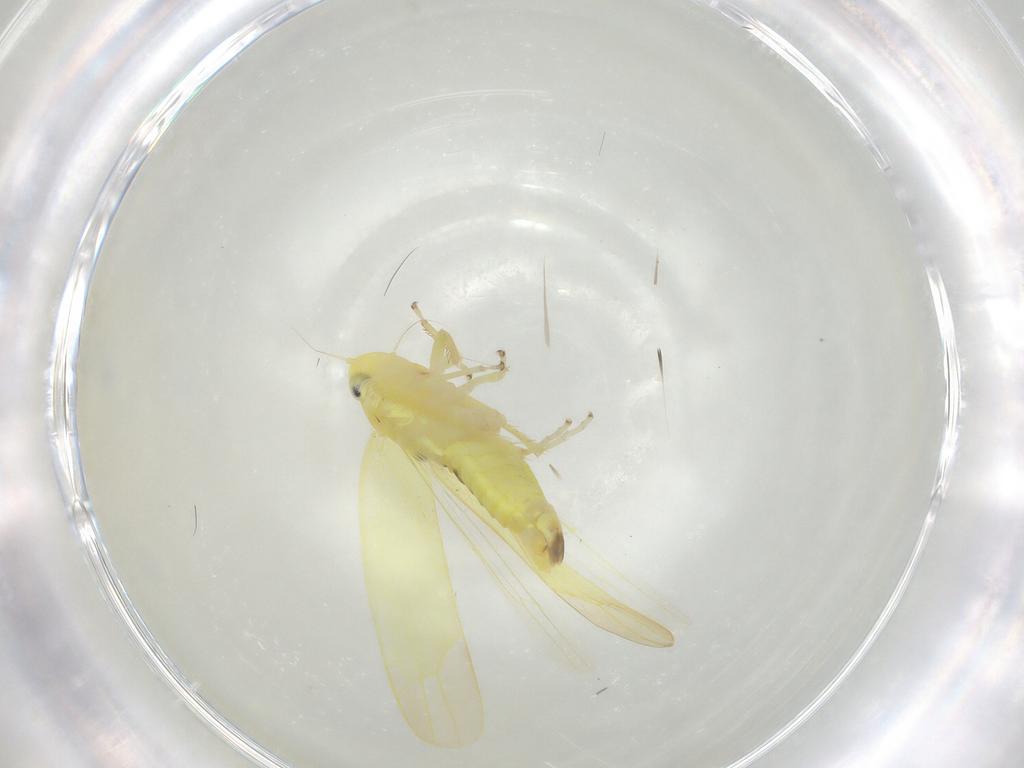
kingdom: Animalia
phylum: Arthropoda
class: Insecta
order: Hemiptera
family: Cicadellidae
